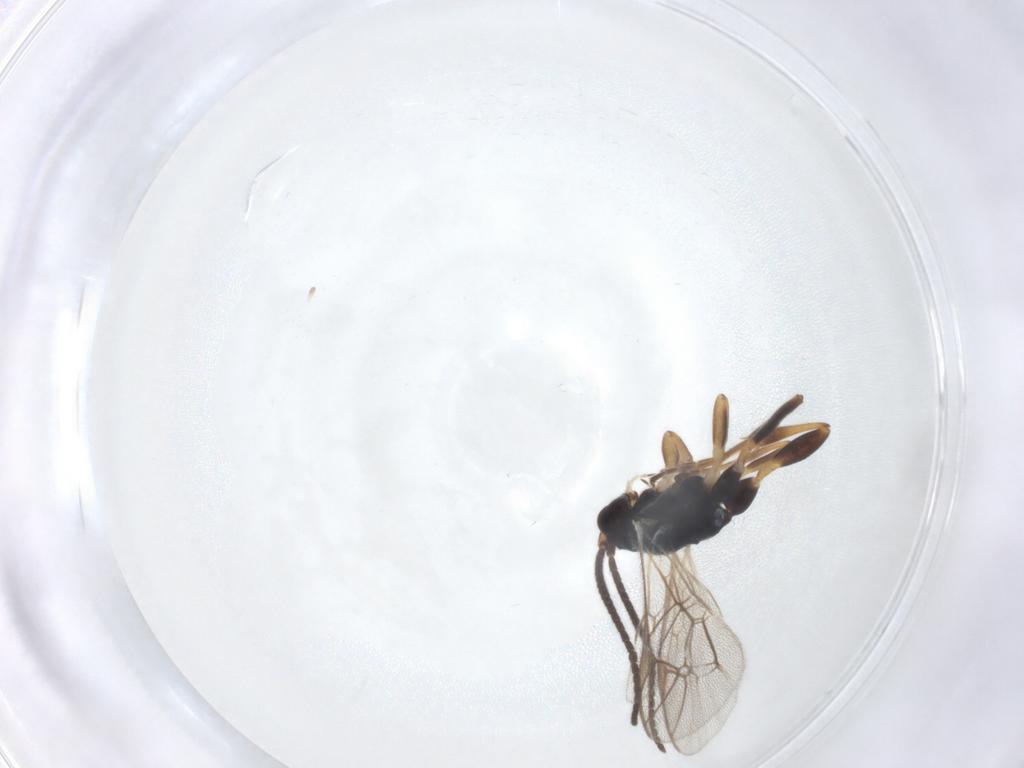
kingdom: Animalia
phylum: Arthropoda
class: Insecta
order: Hymenoptera
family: Ichneumonidae
